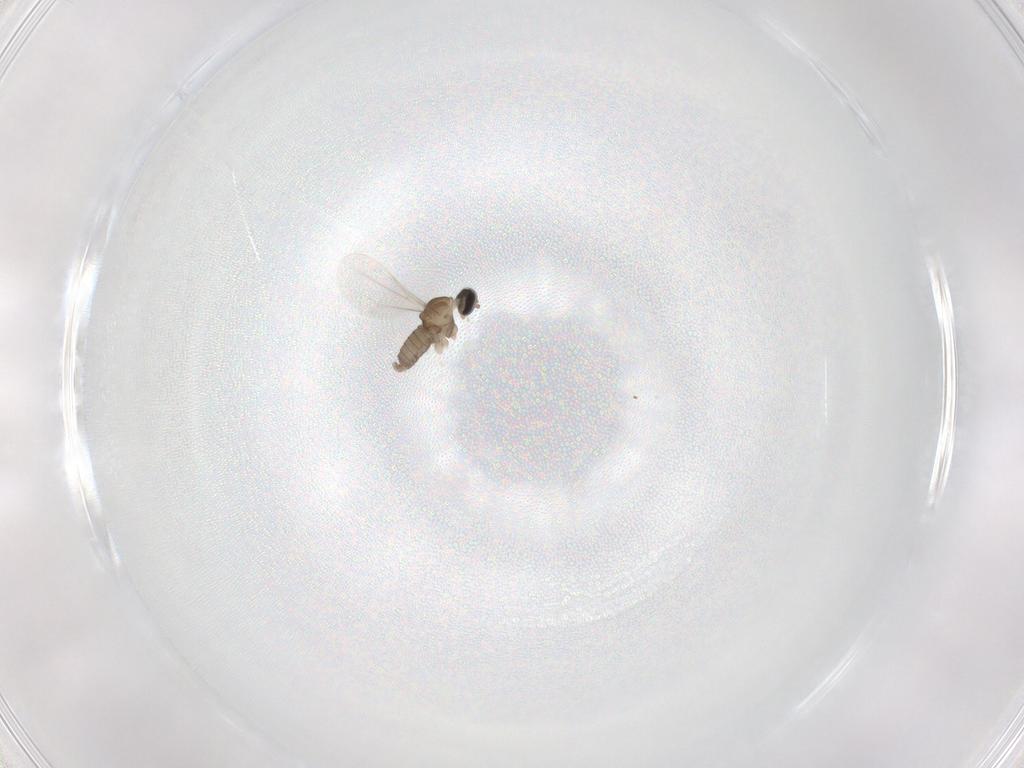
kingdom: Animalia
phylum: Arthropoda
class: Insecta
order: Diptera
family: Cecidomyiidae
